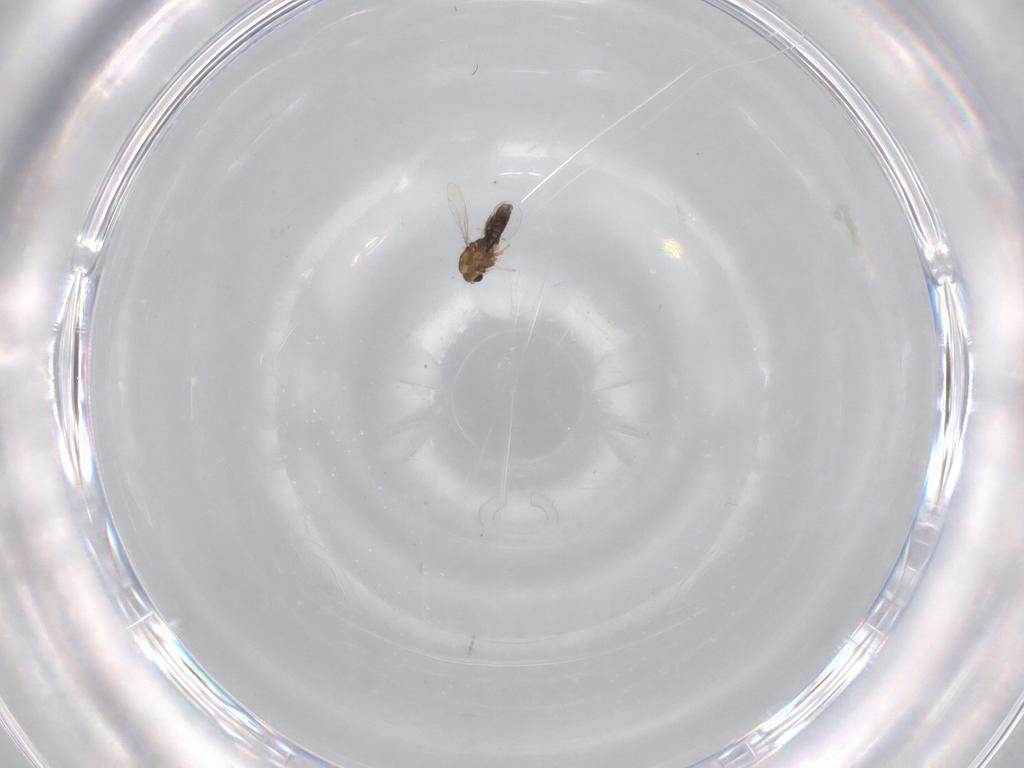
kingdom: Animalia
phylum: Arthropoda
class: Insecta
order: Diptera
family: Chironomidae
